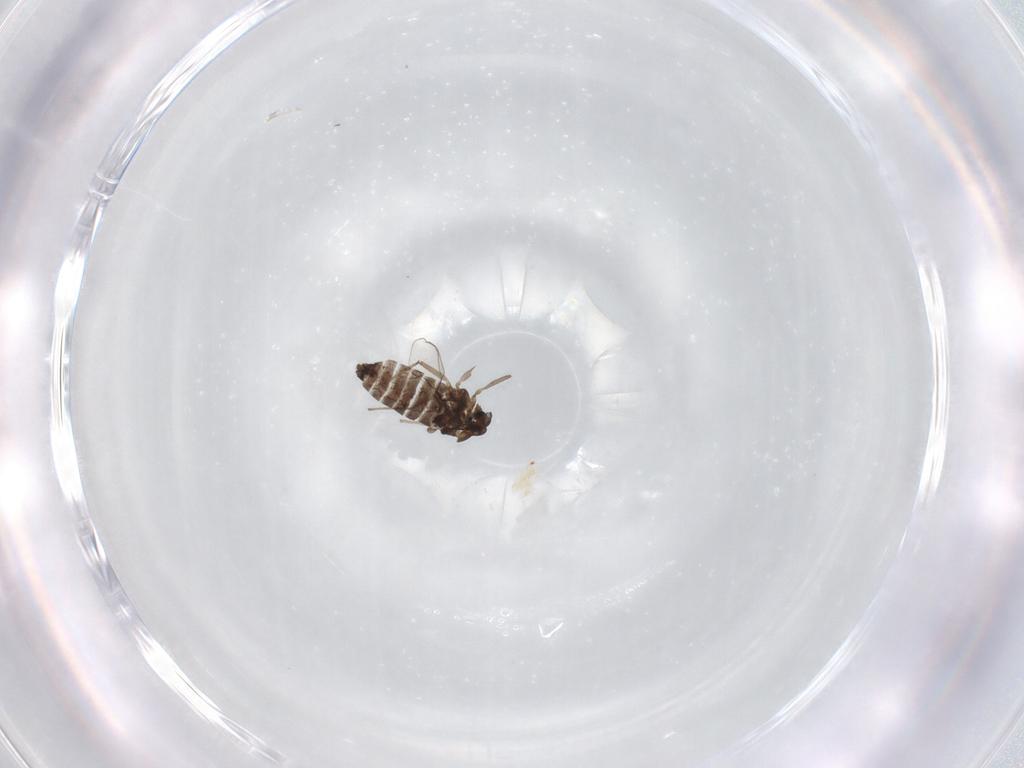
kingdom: Animalia
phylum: Arthropoda
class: Insecta
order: Diptera
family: Chironomidae
